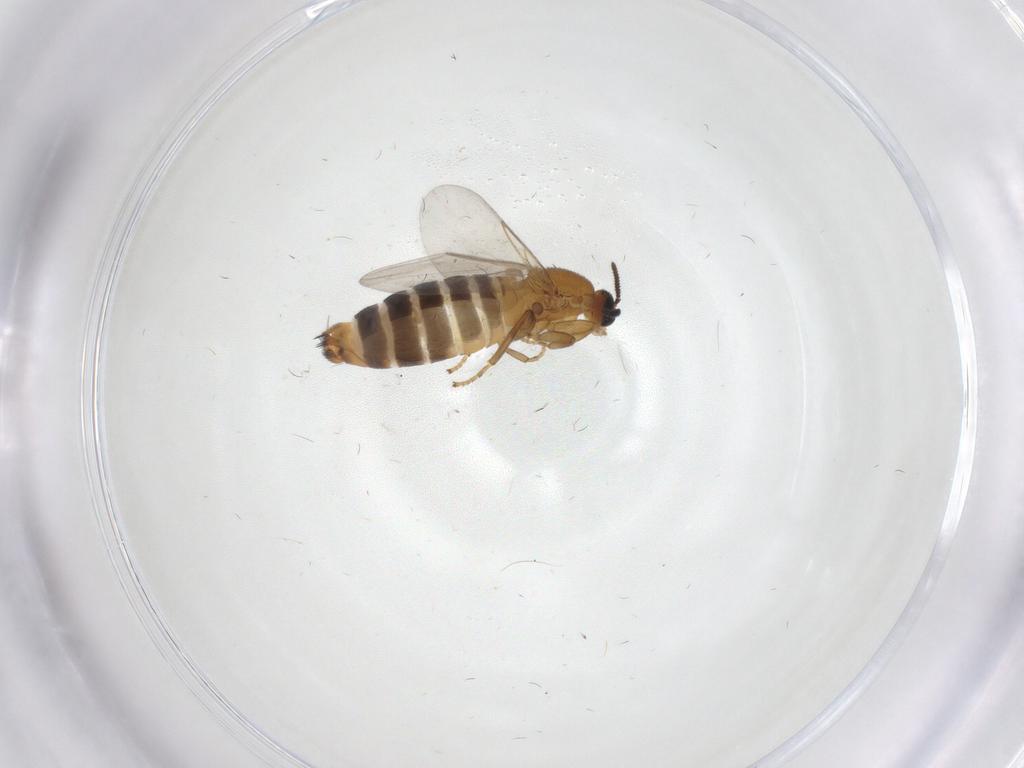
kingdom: Animalia
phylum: Arthropoda
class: Insecta
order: Diptera
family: Scatopsidae
